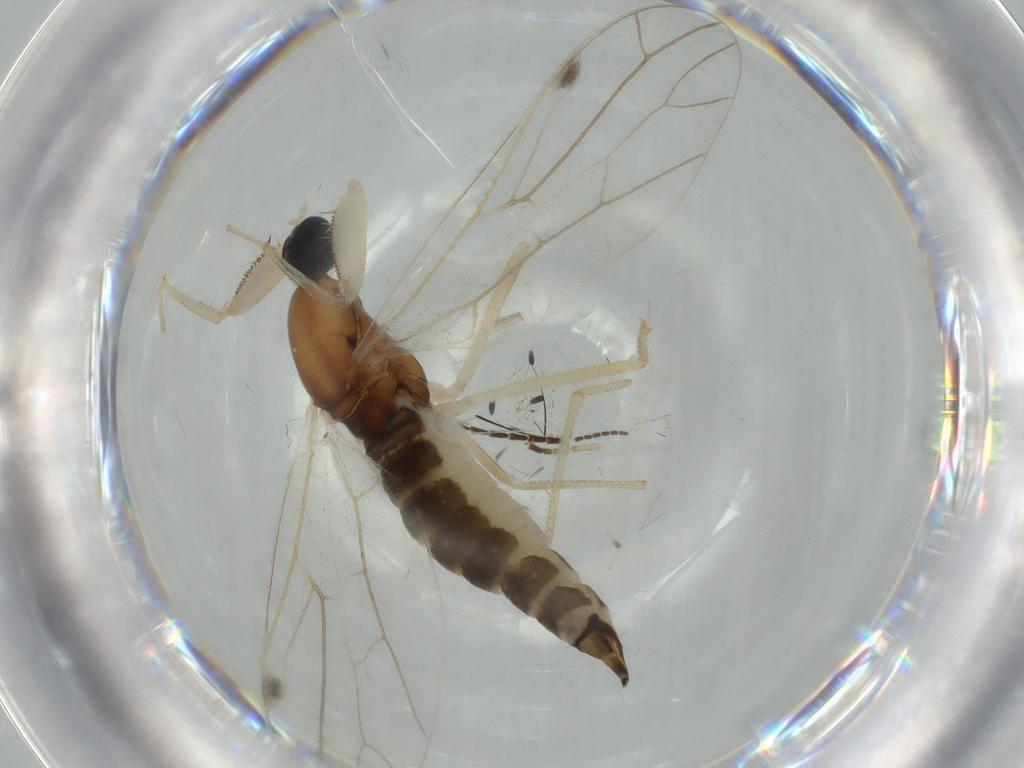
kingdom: Animalia
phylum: Arthropoda
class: Insecta
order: Diptera
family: Empididae
